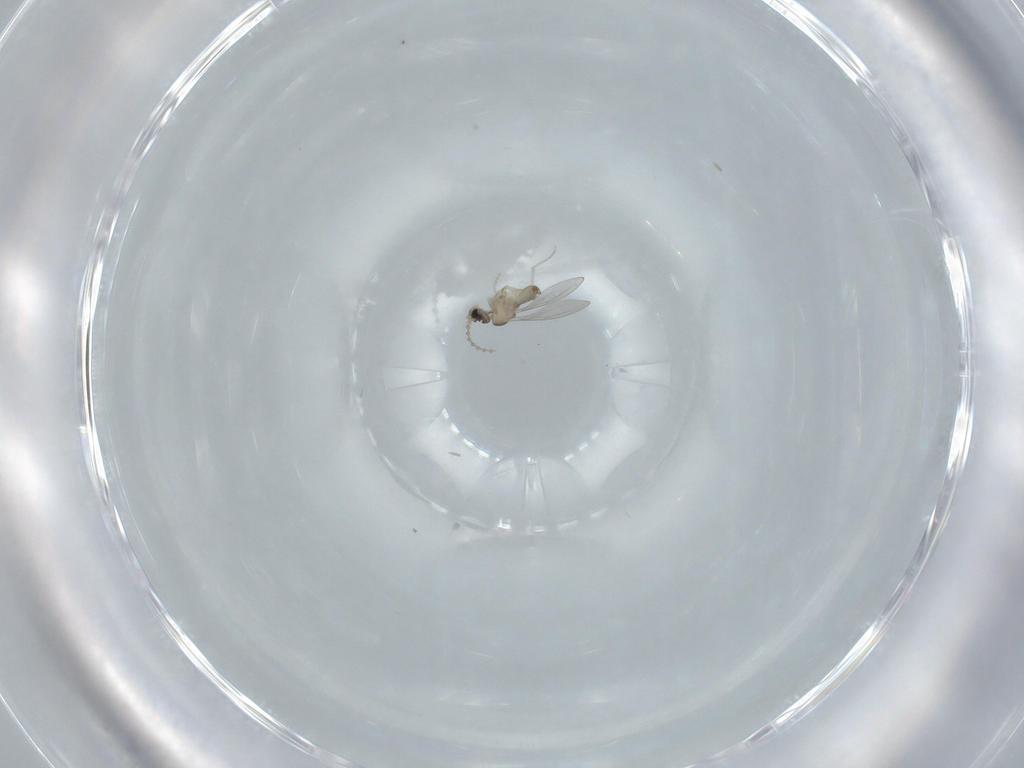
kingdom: Animalia
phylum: Arthropoda
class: Insecta
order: Diptera
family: Cecidomyiidae
